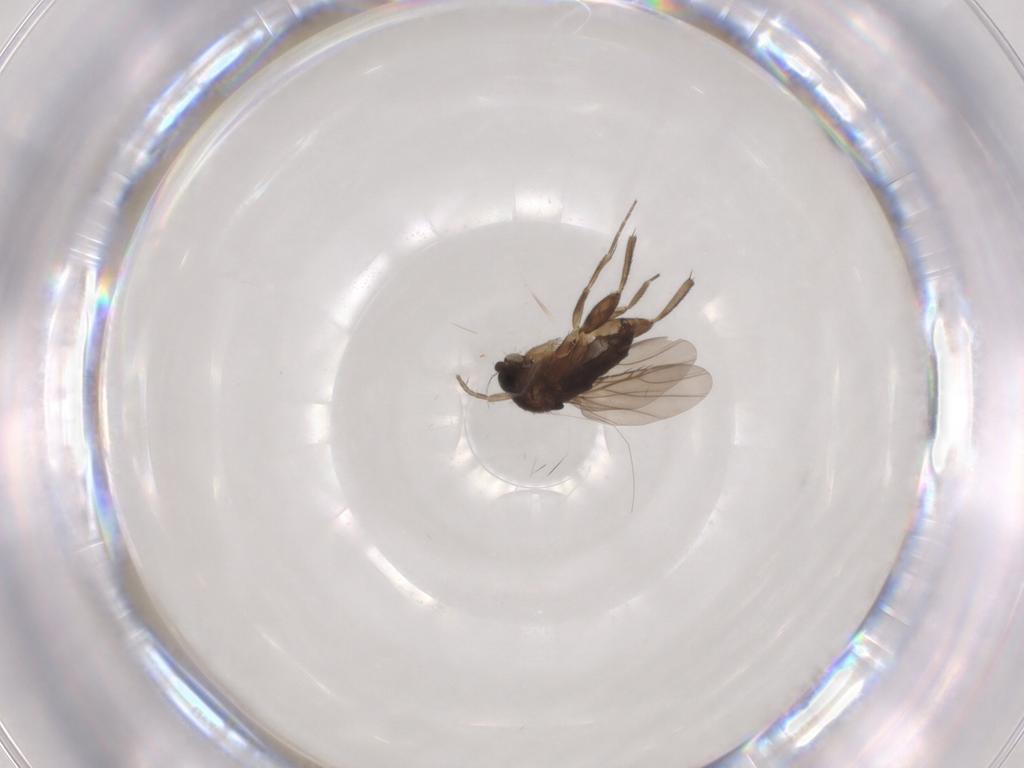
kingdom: Animalia
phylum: Arthropoda
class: Insecta
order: Diptera
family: Phoridae
